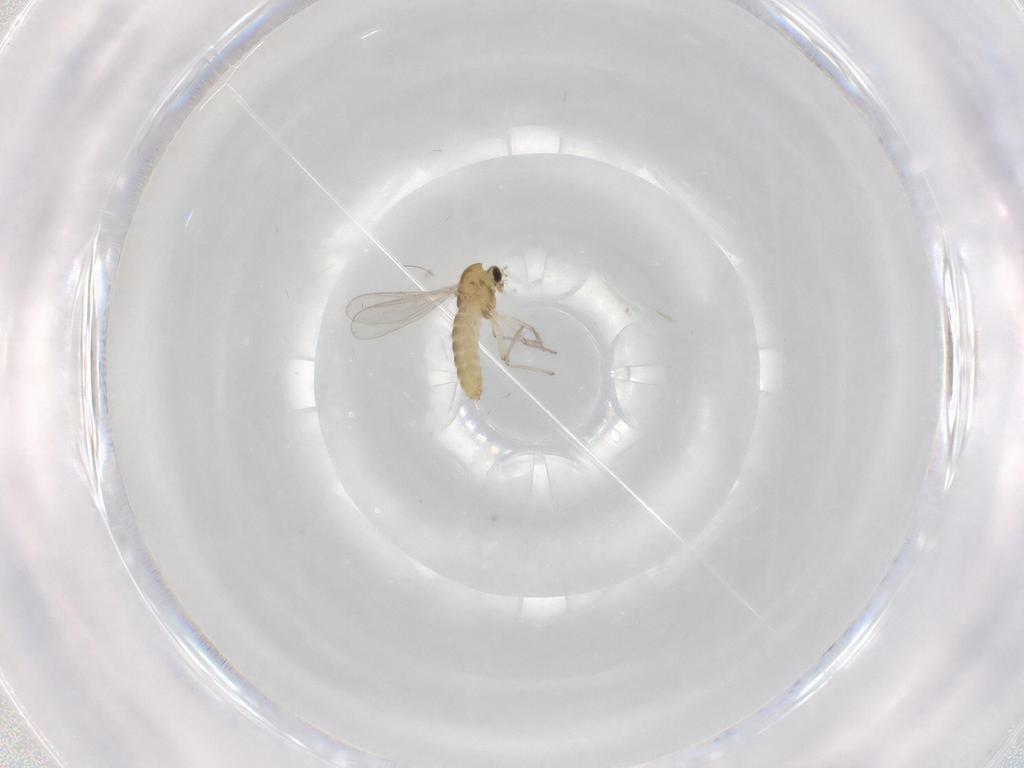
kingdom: Animalia
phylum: Arthropoda
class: Insecta
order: Diptera
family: Chironomidae
